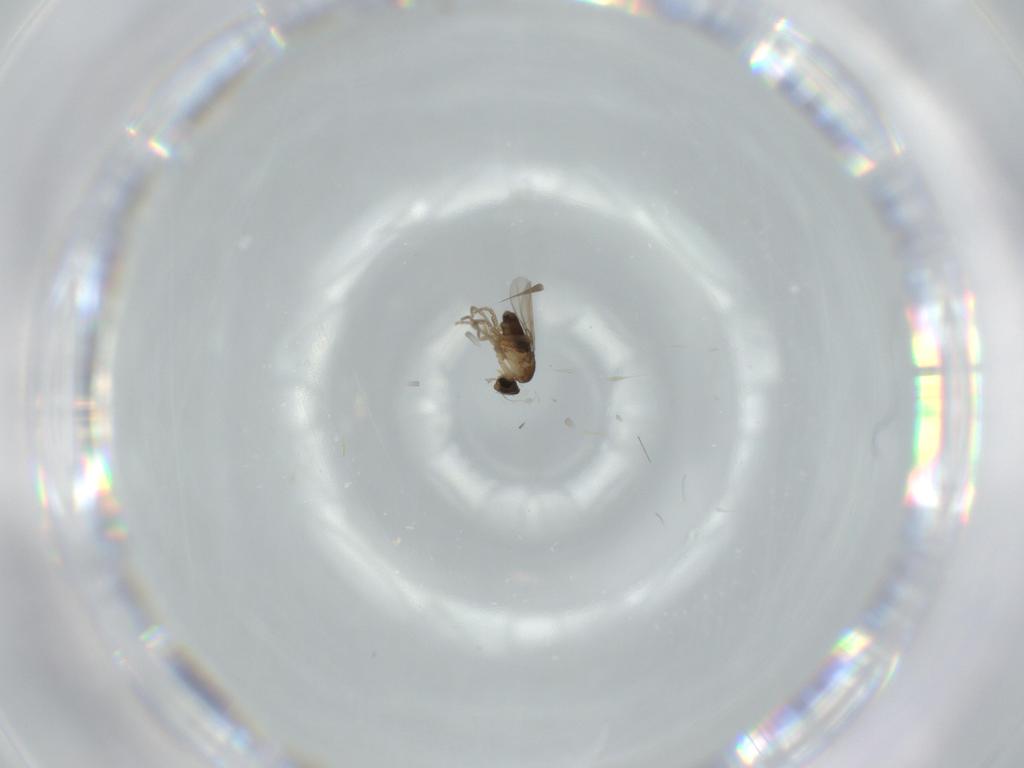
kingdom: Animalia
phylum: Arthropoda
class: Insecta
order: Diptera
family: Phoridae
